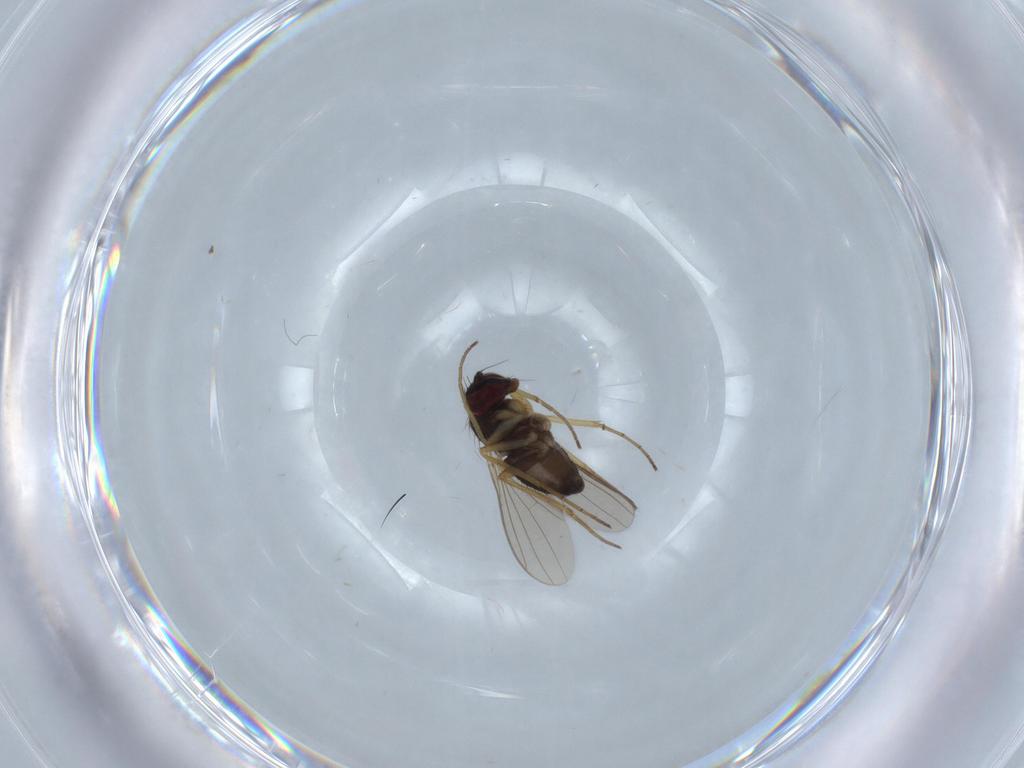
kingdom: Animalia
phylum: Arthropoda
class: Insecta
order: Diptera
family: Dolichopodidae
